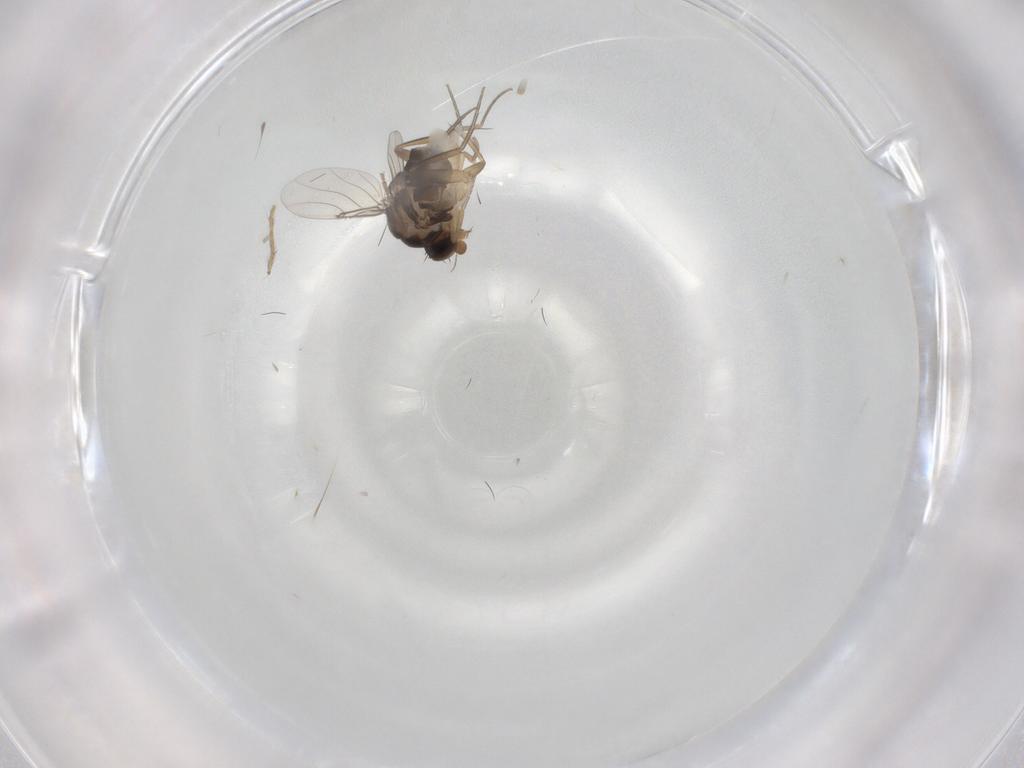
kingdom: Animalia
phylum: Arthropoda
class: Insecta
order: Diptera
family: Phoridae
